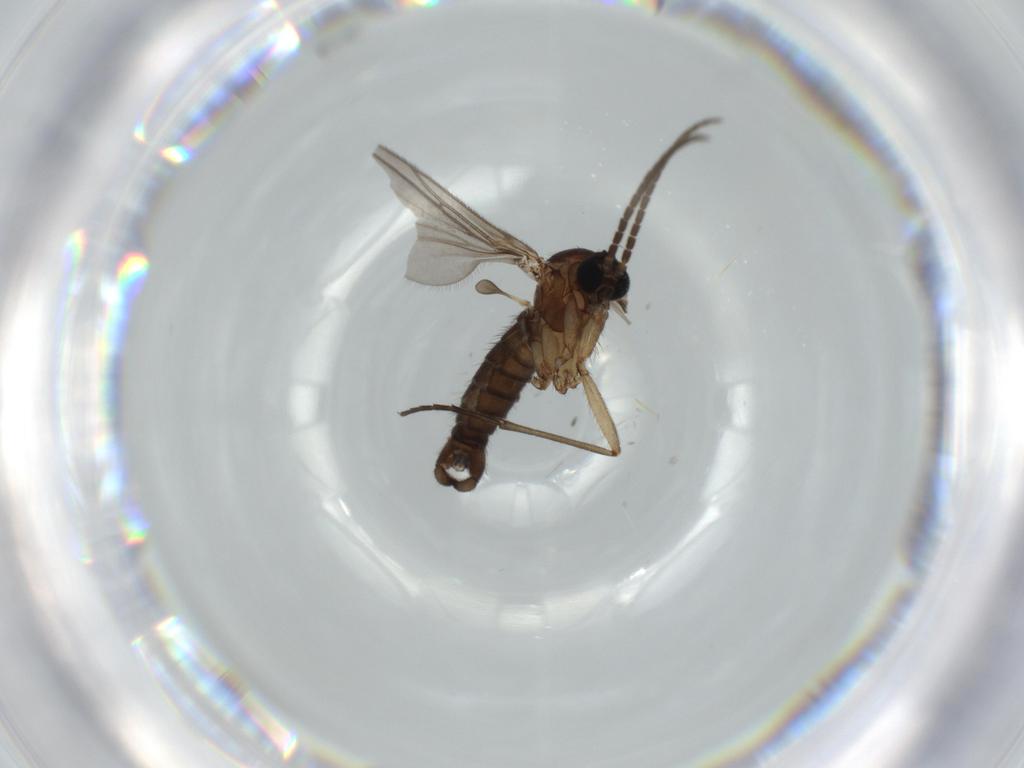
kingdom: Animalia
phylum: Arthropoda
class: Insecta
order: Diptera
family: Sciaridae
